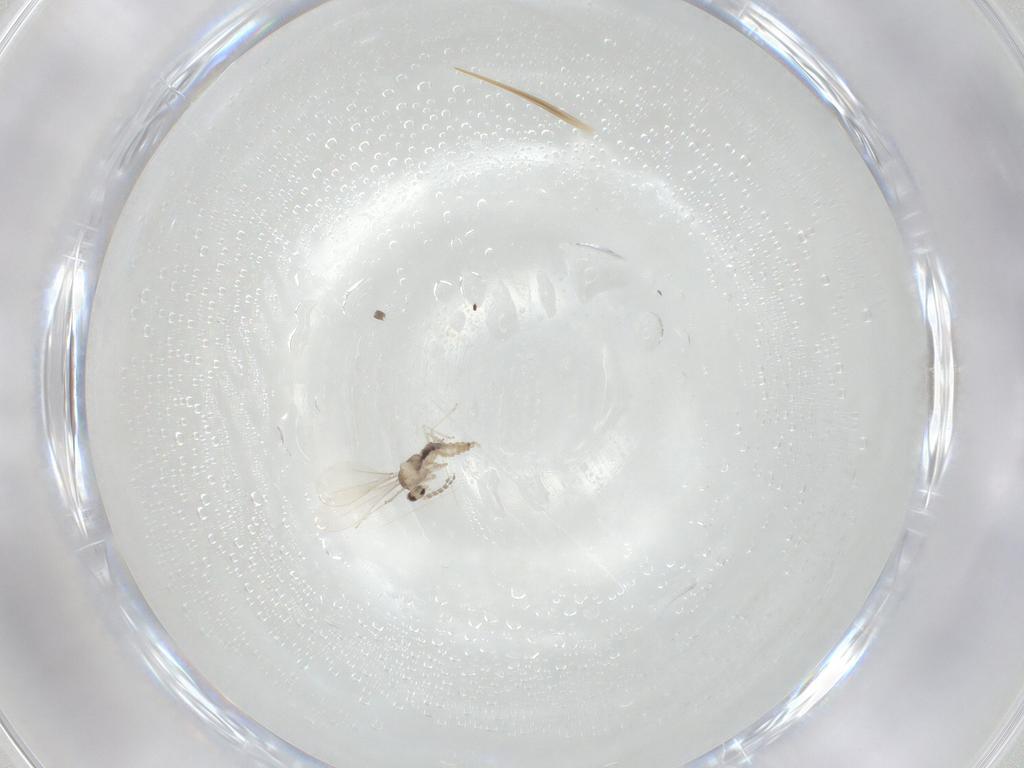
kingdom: Animalia
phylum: Arthropoda
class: Insecta
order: Diptera
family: Cecidomyiidae
